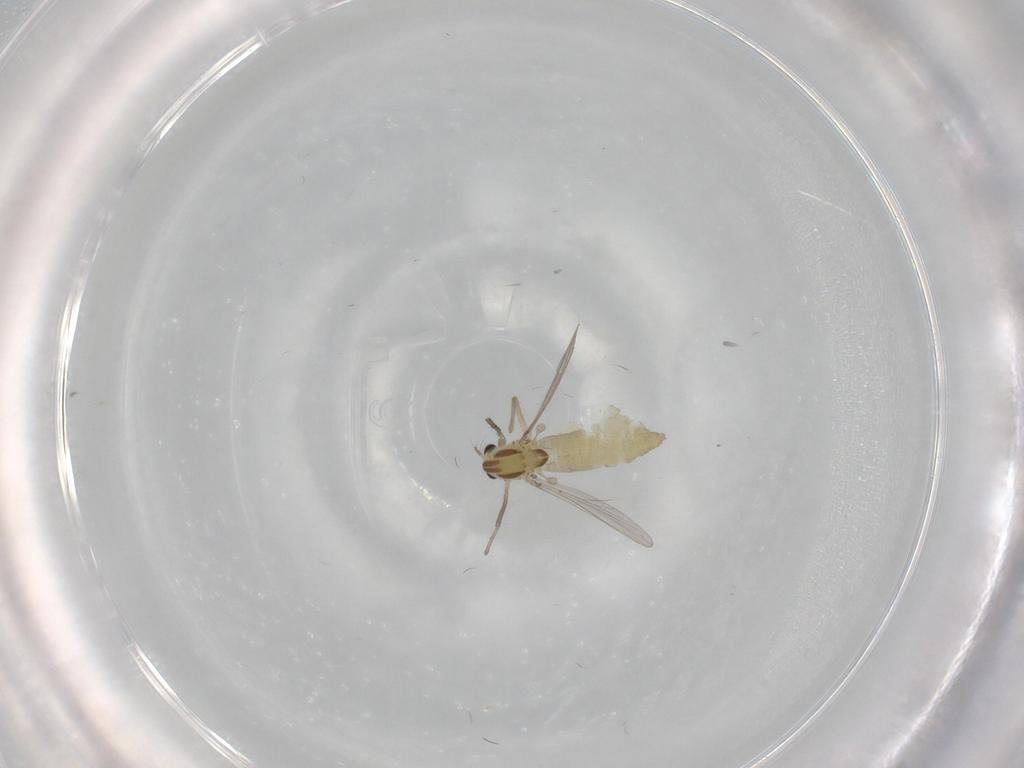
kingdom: Animalia
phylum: Arthropoda
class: Insecta
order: Diptera
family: Chironomidae
